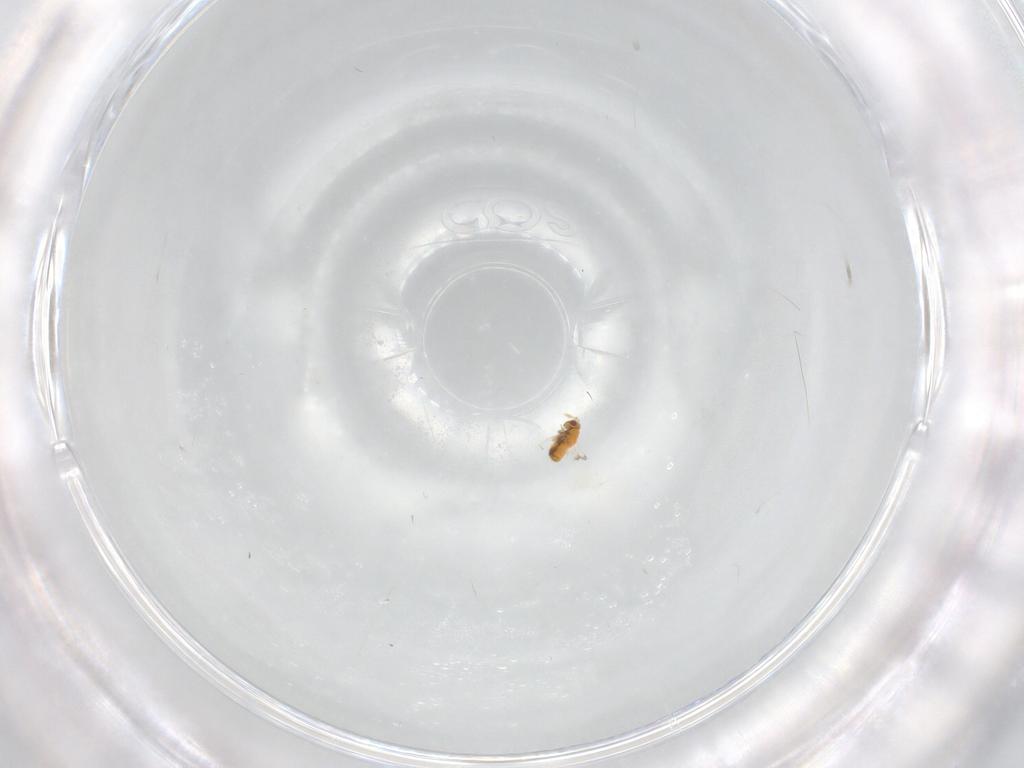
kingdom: Animalia
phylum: Arthropoda
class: Insecta
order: Hymenoptera
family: Trichogrammatidae
